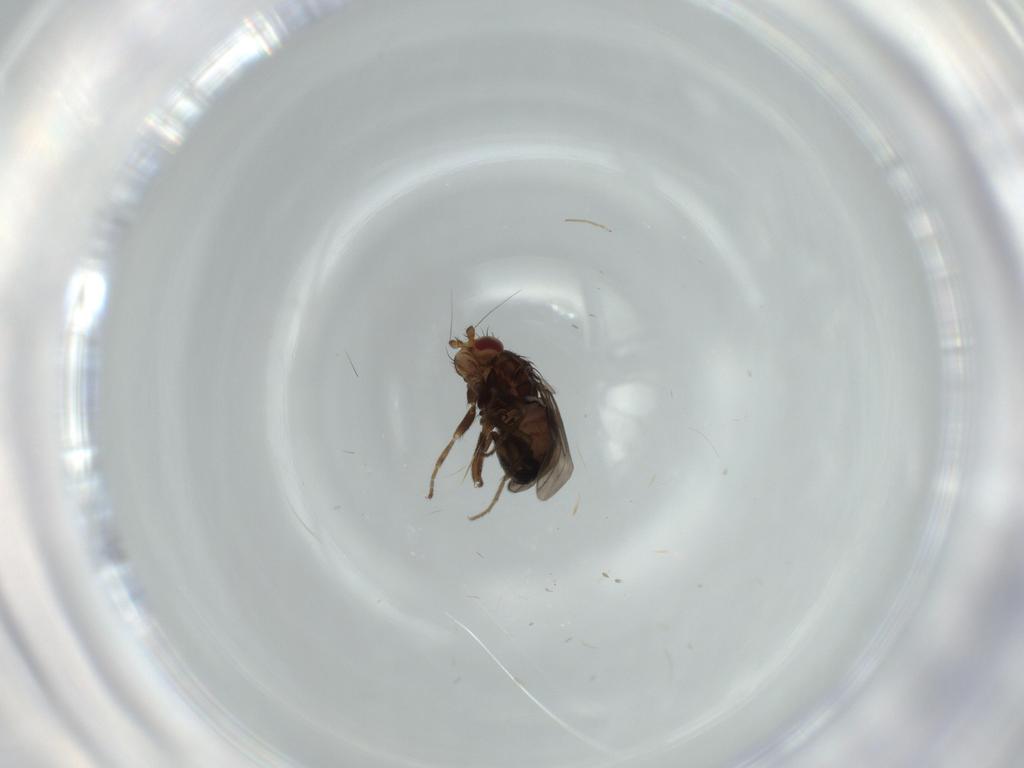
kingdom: Animalia
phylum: Arthropoda
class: Insecta
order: Diptera
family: Sphaeroceridae
